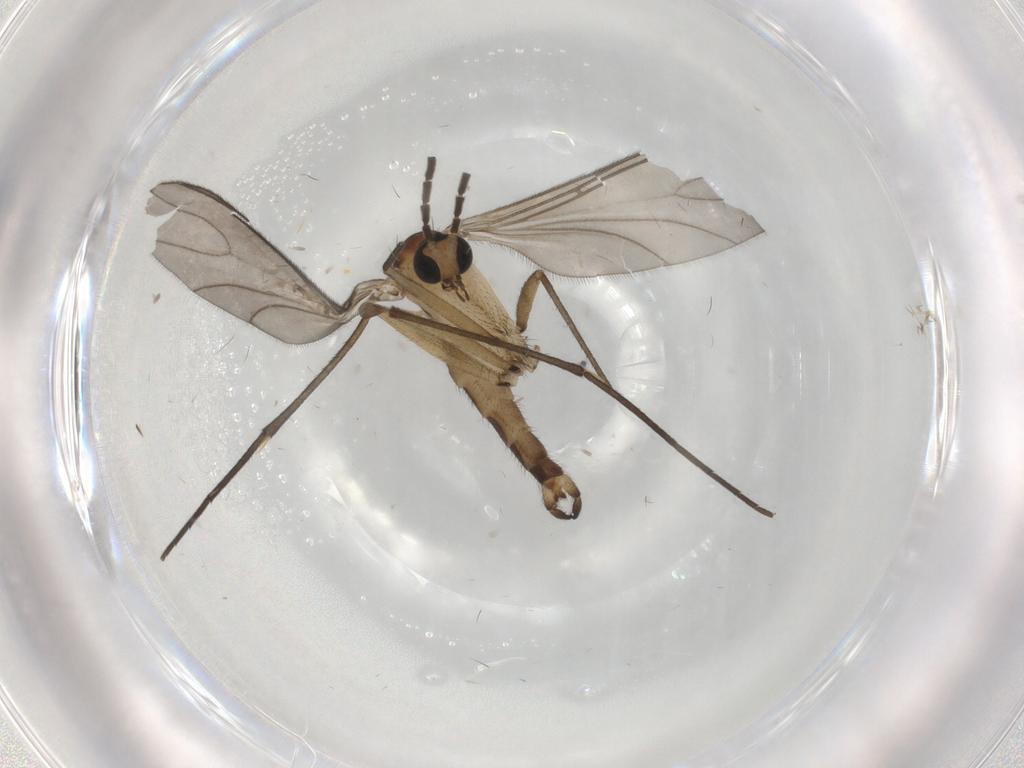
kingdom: Animalia
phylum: Arthropoda
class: Insecta
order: Diptera
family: Sciaridae
